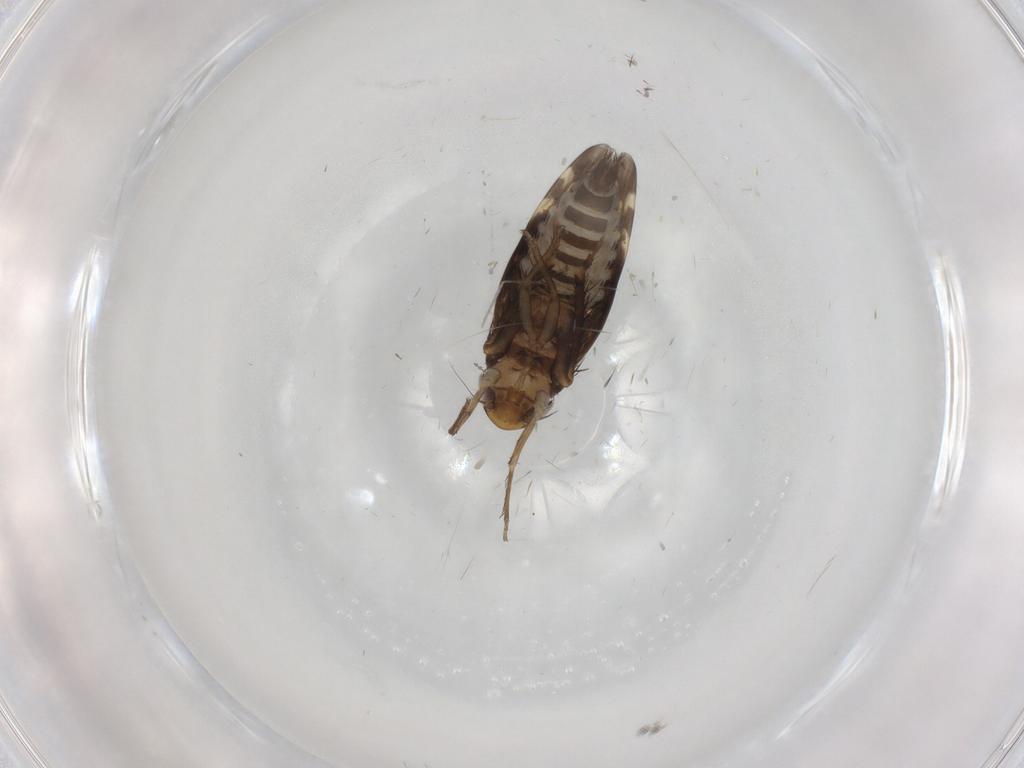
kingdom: Animalia
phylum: Arthropoda
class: Insecta
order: Hemiptera
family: Cicadellidae
